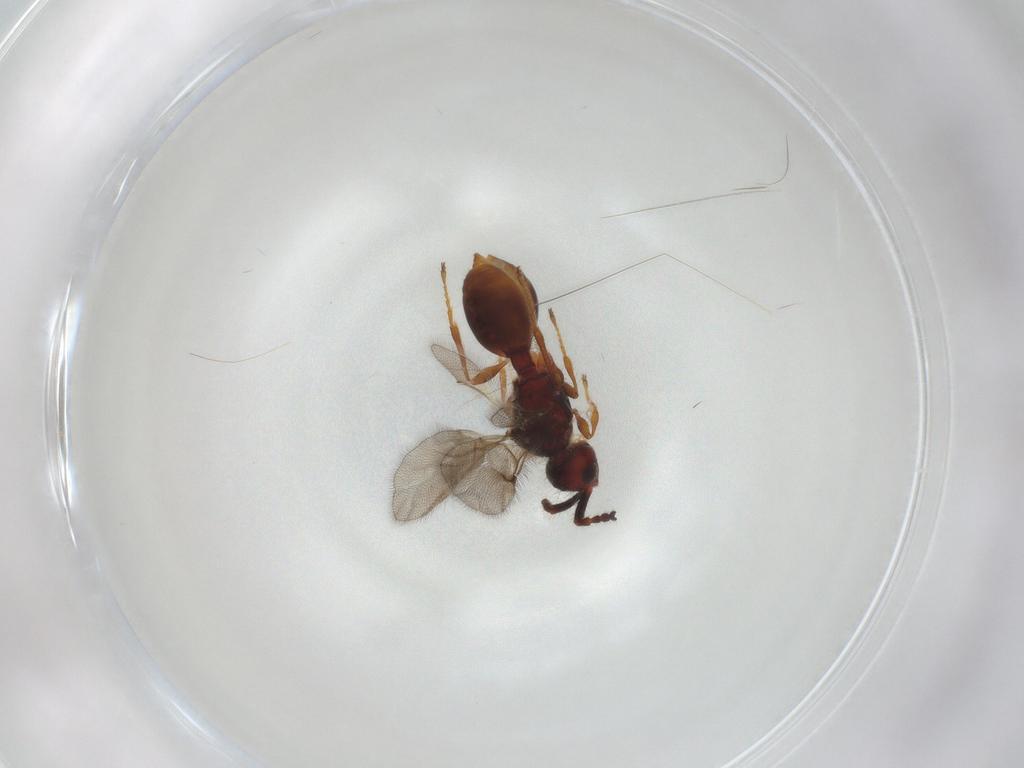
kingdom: Animalia
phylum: Arthropoda
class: Insecta
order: Hymenoptera
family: Diapriidae
